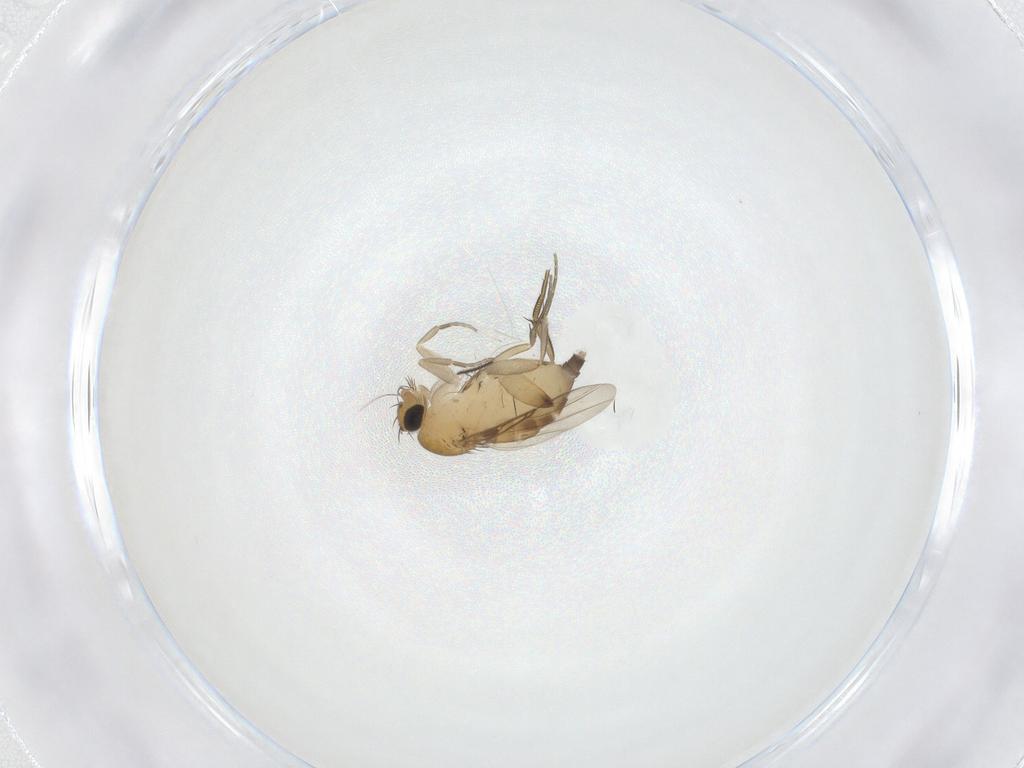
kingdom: Animalia
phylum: Arthropoda
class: Insecta
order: Diptera
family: Phoridae
